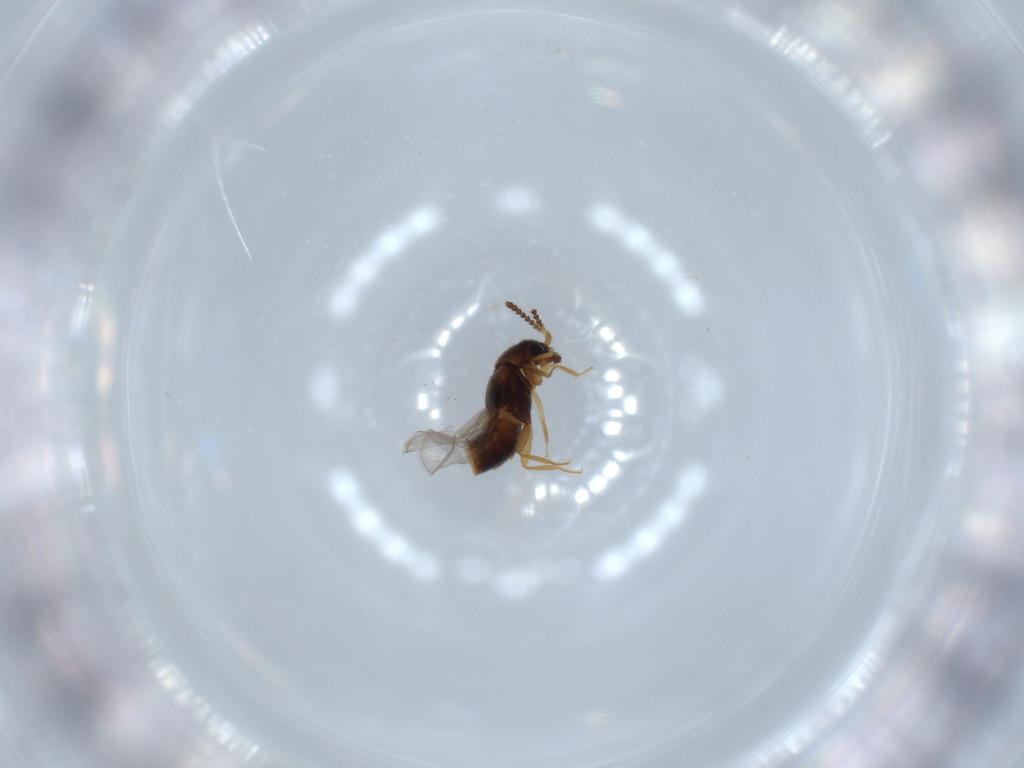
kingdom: Animalia
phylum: Arthropoda
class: Insecta
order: Coleoptera
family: Staphylinidae
